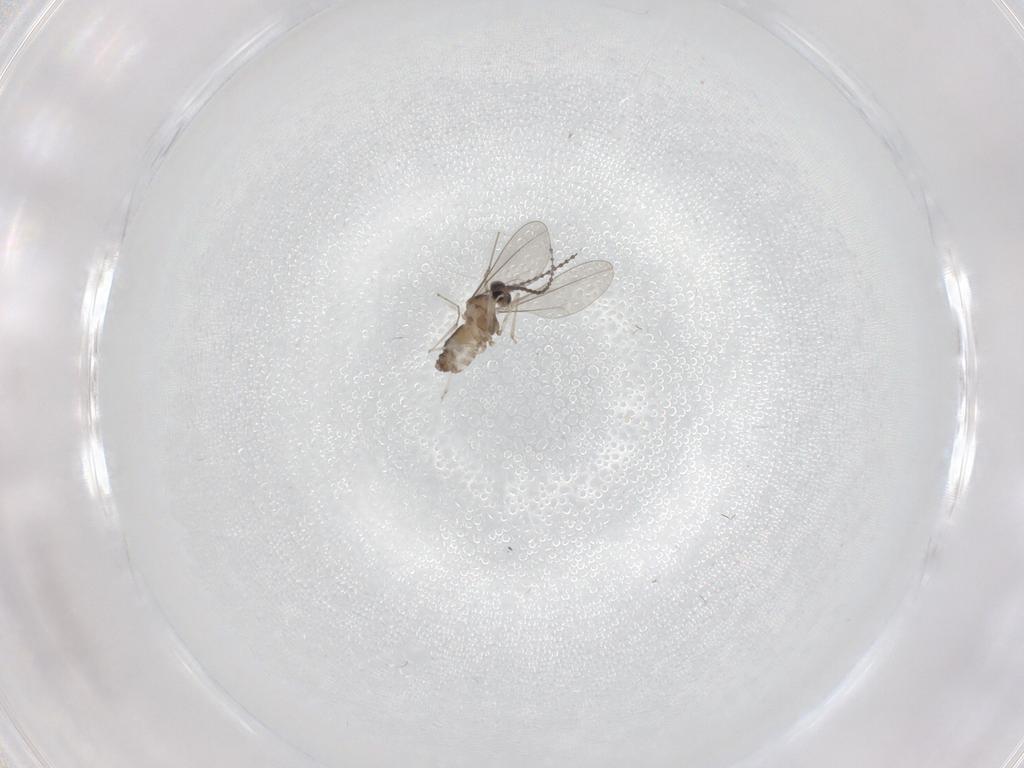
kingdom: Animalia
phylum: Arthropoda
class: Insecta
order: Diptera
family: Cecidomyiidae
